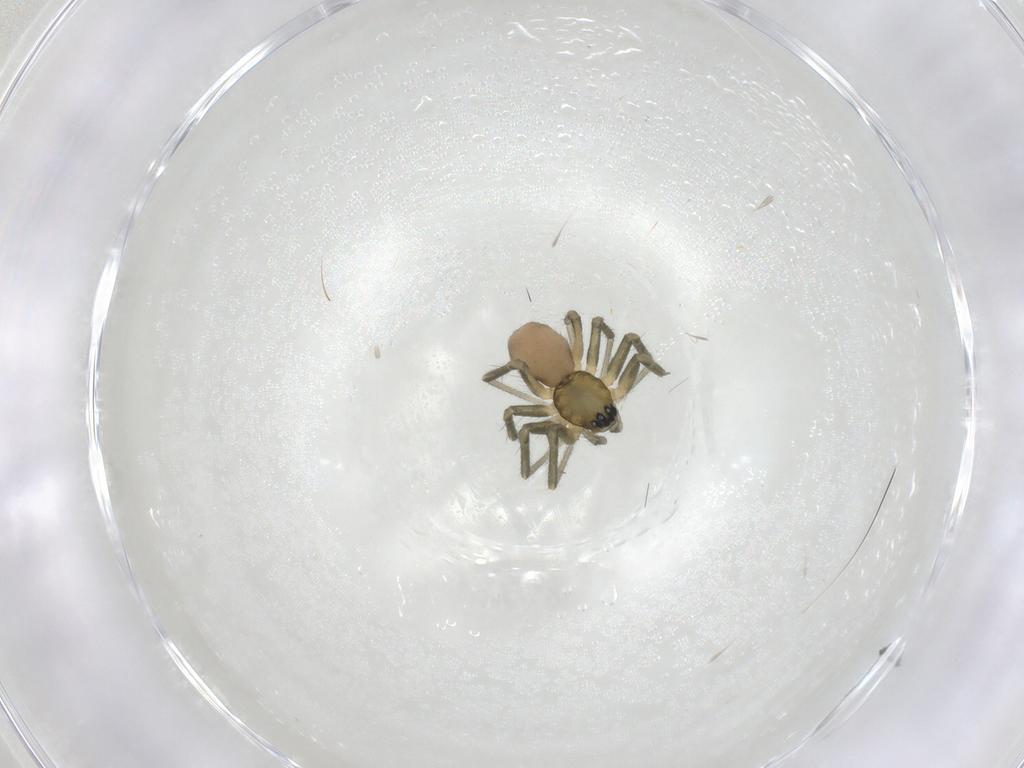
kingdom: Animalia
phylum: Arthropoda
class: Arachnida
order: Araneae
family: Linyphiidae
